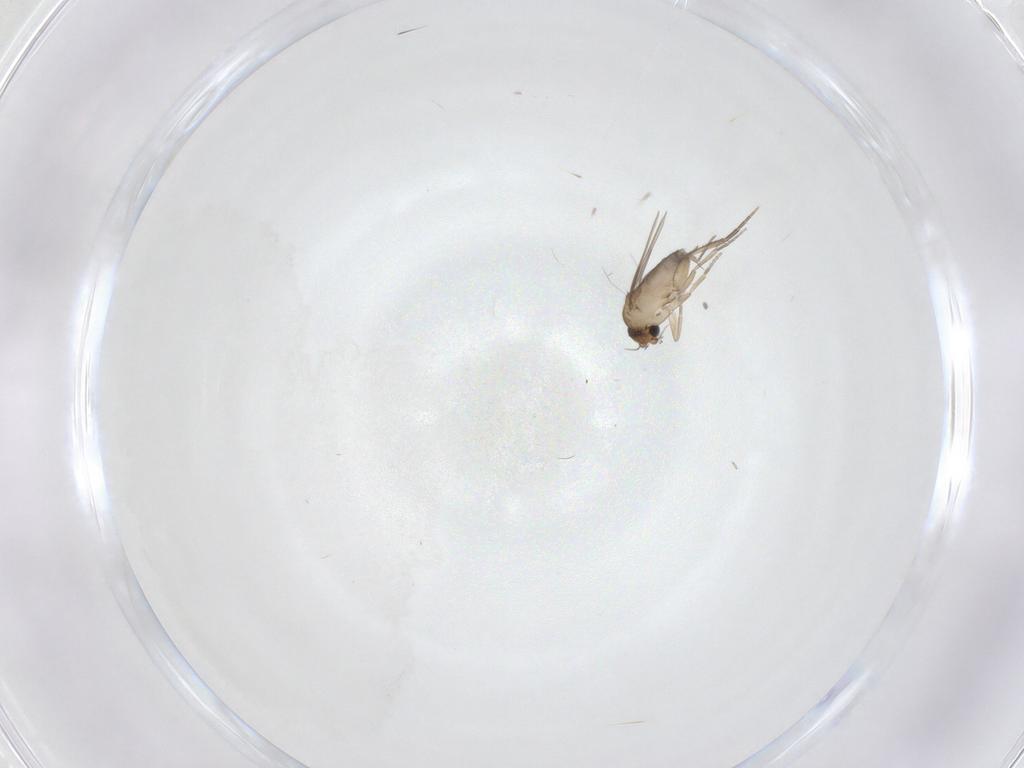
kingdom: Animalia
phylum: Arthropoda
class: Insecta
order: Diptera
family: Phoridae
